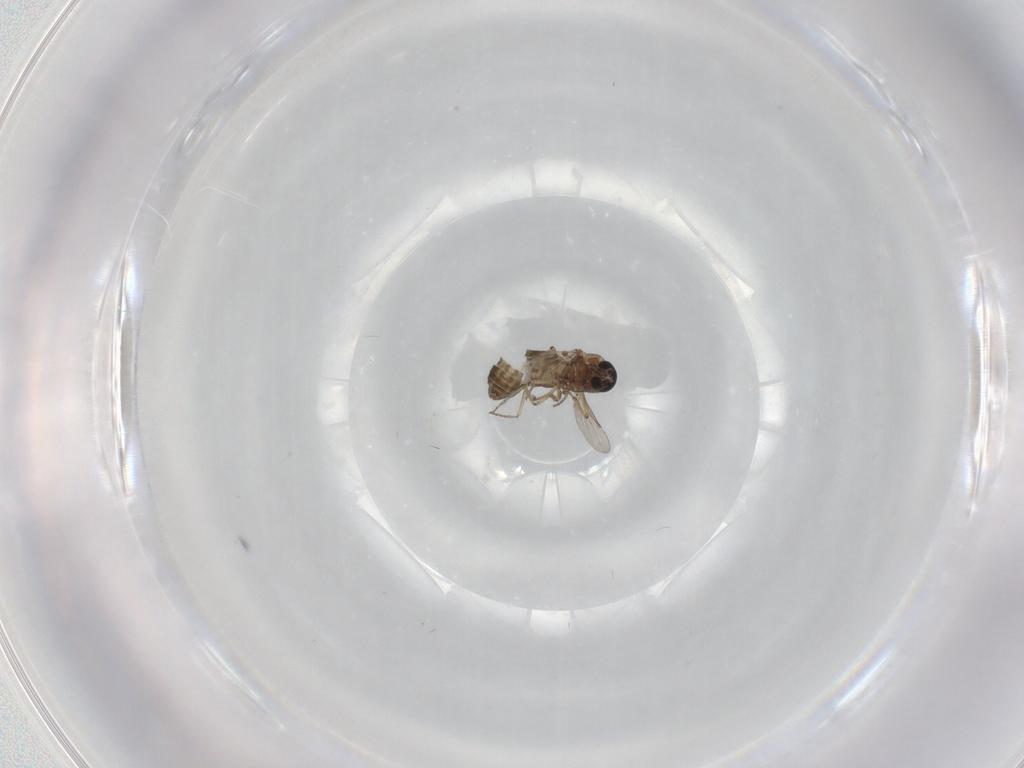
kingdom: Animalia
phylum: Arthropoda
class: Insecta
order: Diptera
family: Ceratopogonidae
